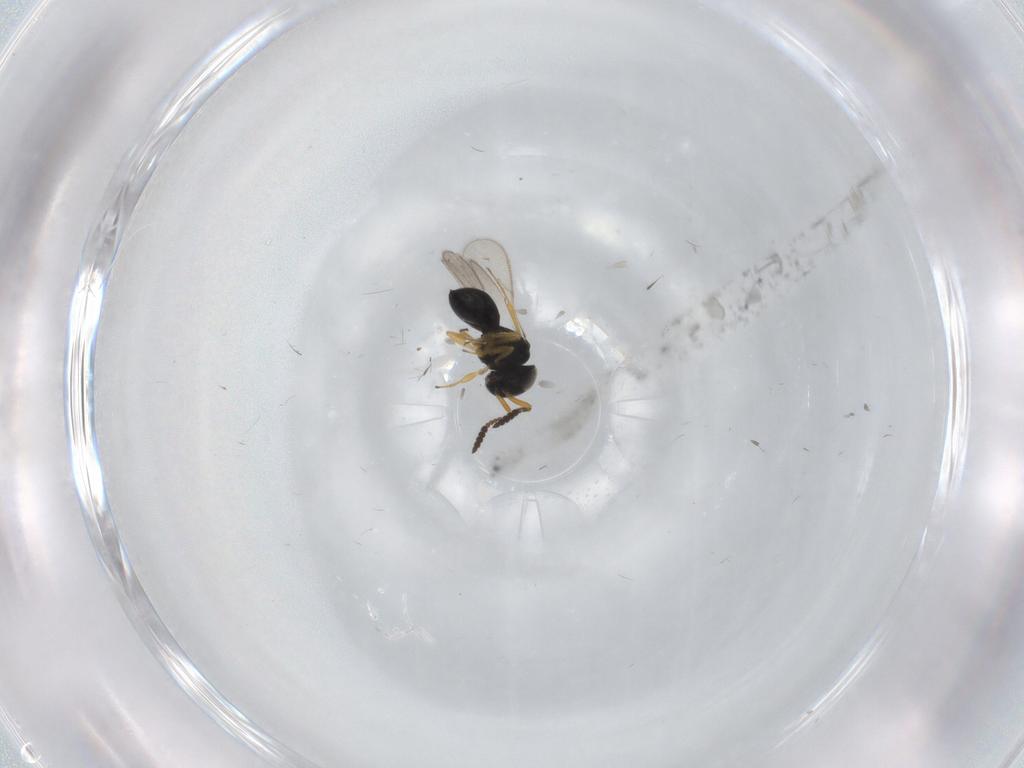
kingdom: Animalia
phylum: Arthropoda
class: Insecta
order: Hymenoptera
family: Scelionidae
